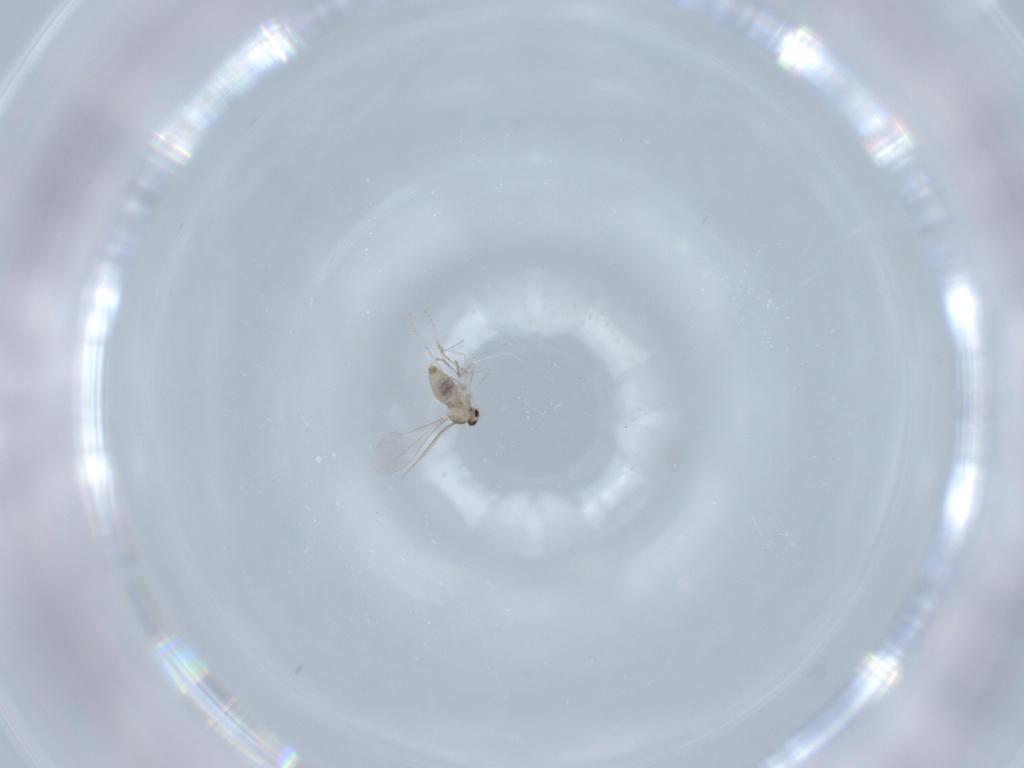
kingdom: Animalia
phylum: Arthropoda
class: Insecta
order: Diptera
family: Cecidomyiidae
